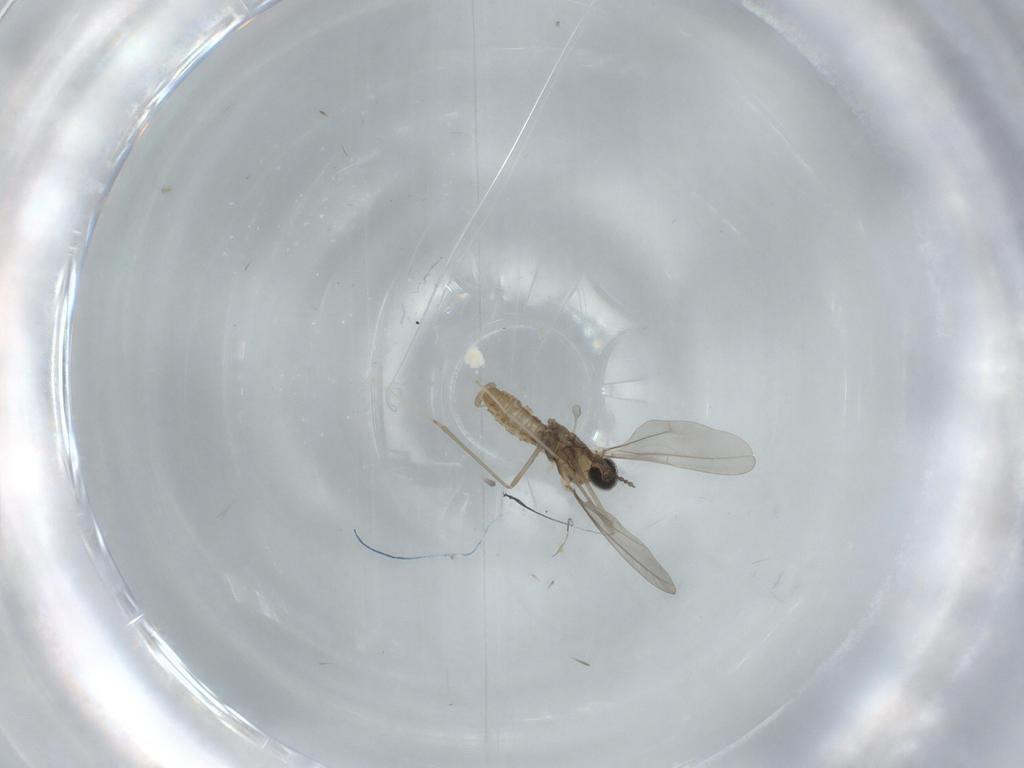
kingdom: Animalia
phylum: Arthropoda
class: Insecta
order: Diptera
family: Cecidomyiidae
